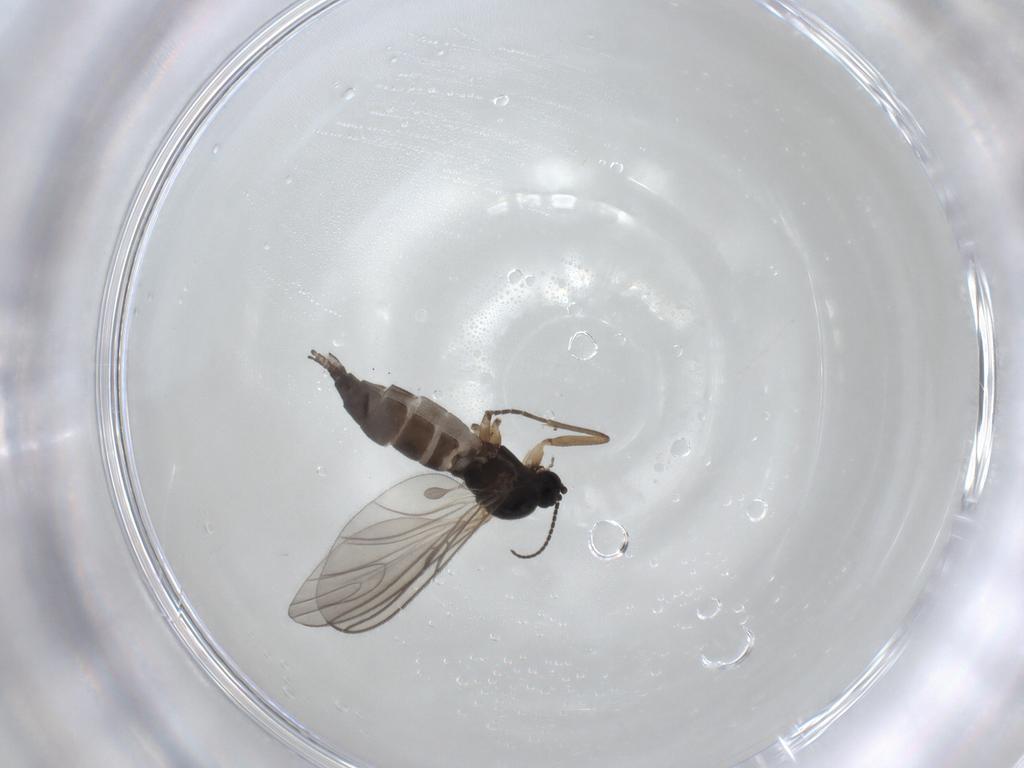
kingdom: Animalia
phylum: Arthropoda
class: Insecta
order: Diptera
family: Sciaridae
